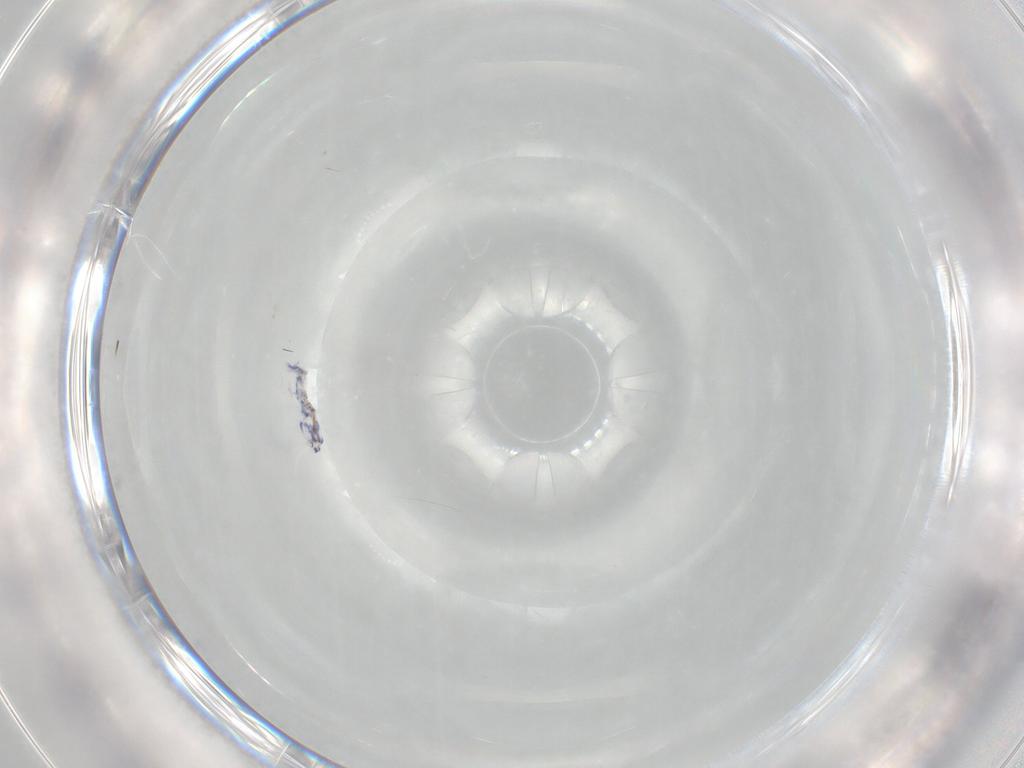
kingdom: Animalia
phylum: Arthropoda
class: Collembola
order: Entomobryomorpha
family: Entomobryidae
